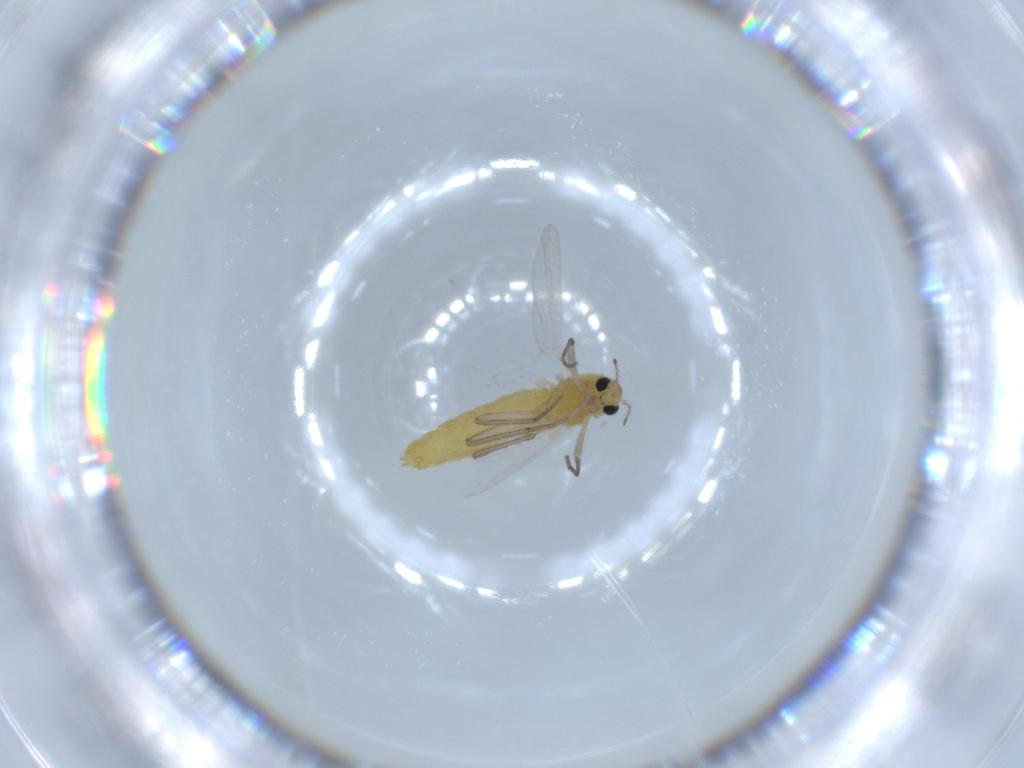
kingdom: Animalia
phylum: Arthropoda
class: Insecta
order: Diptera
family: Chironomidae
